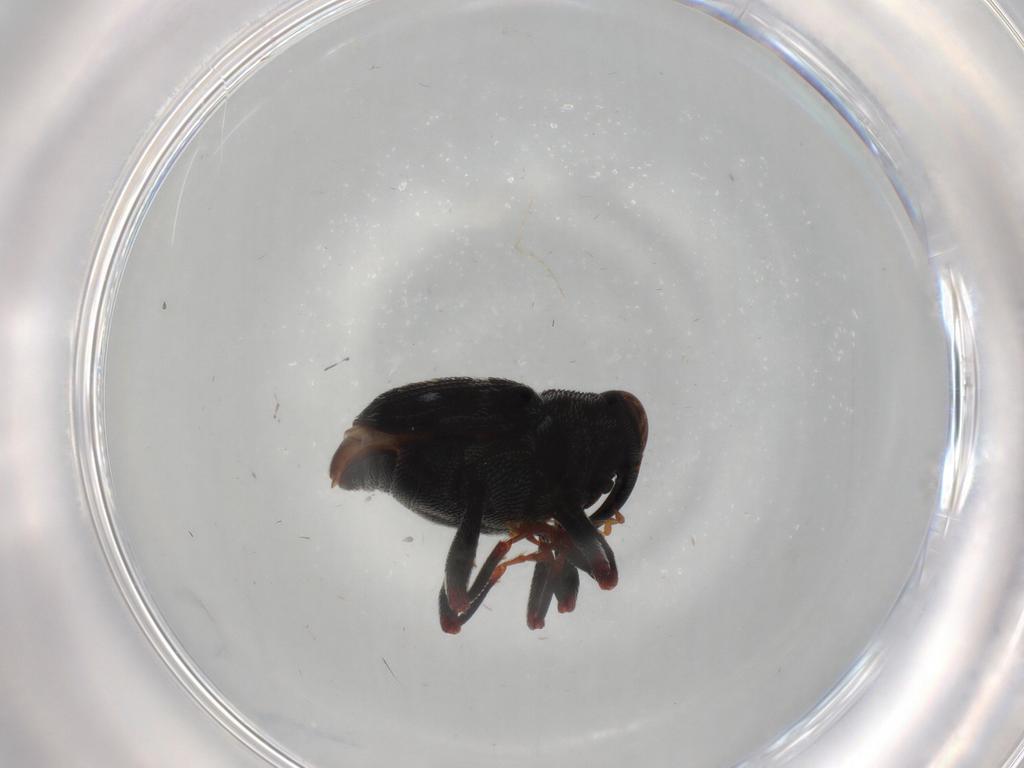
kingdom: Animalia
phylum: Arthropoda
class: Insecta
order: Coleoptera
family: Curculionidae
